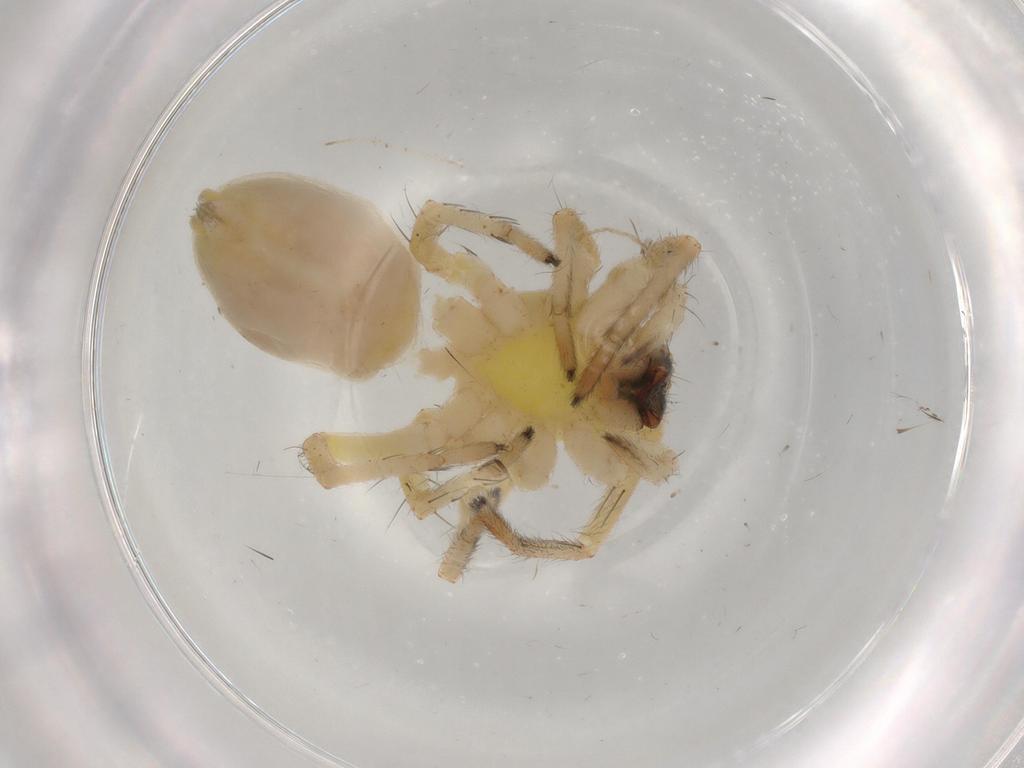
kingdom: Animalia
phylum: Arthropoda
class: Arachnida
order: Araneae
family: Anyphaenidae
